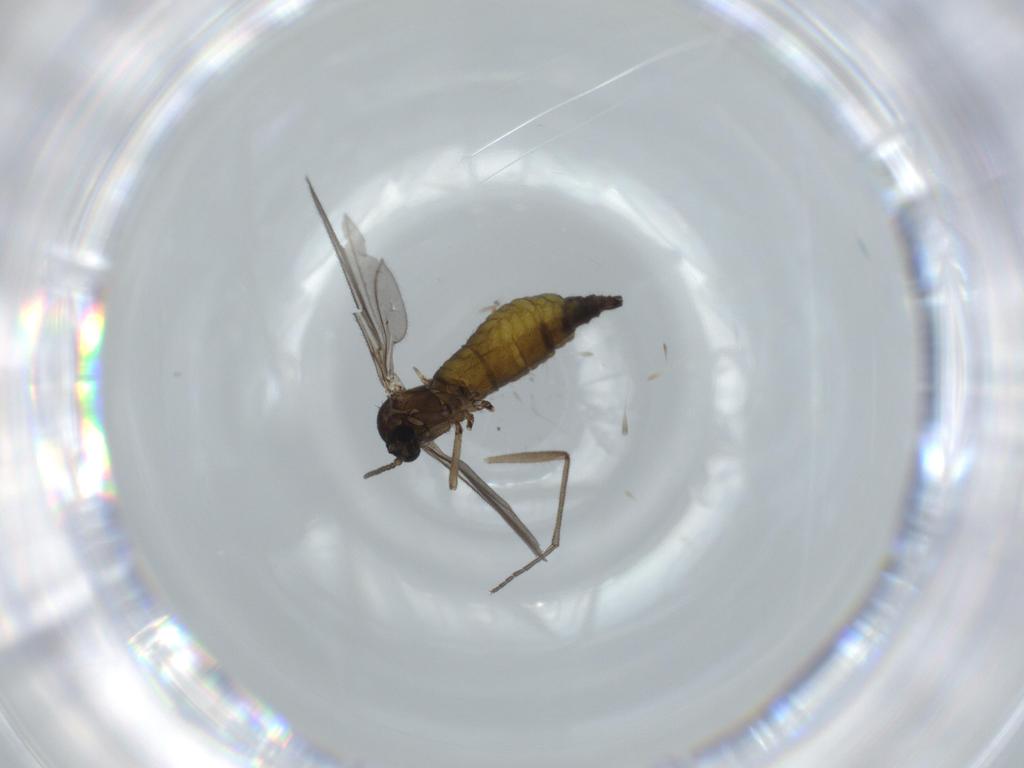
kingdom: Animalia
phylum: Arthropoda
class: Insecta
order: Diptera
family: Sciaridae
